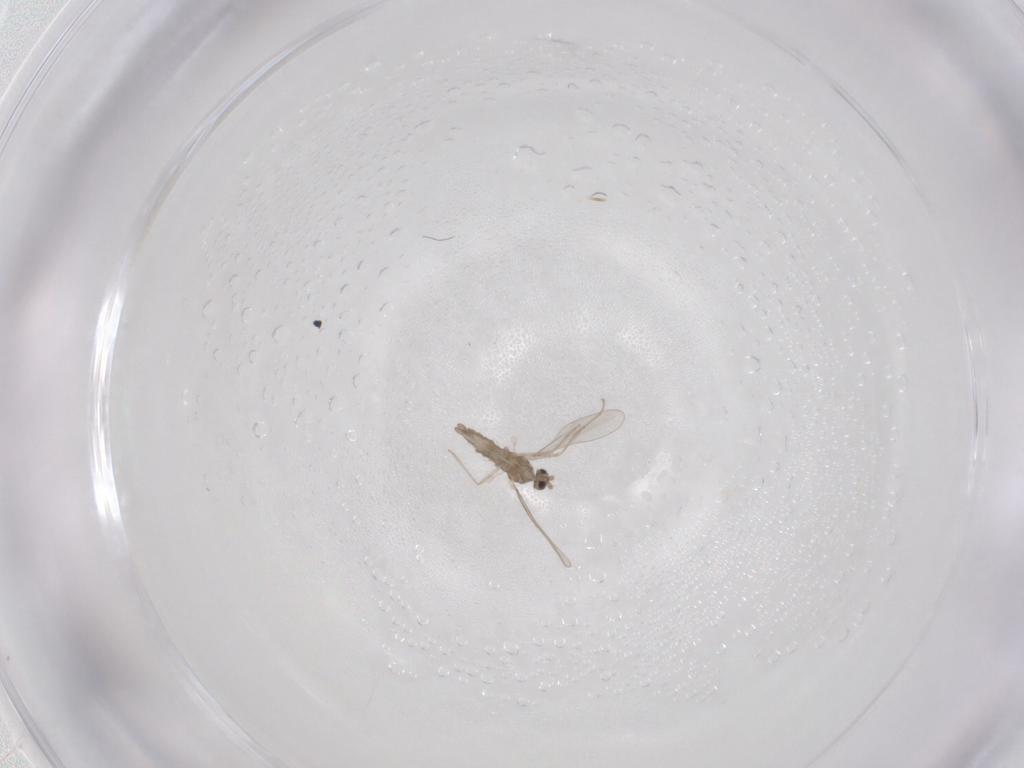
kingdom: Animalia
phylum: Arthropoda
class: Insecta
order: Diptera
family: Cecidomyiidae
